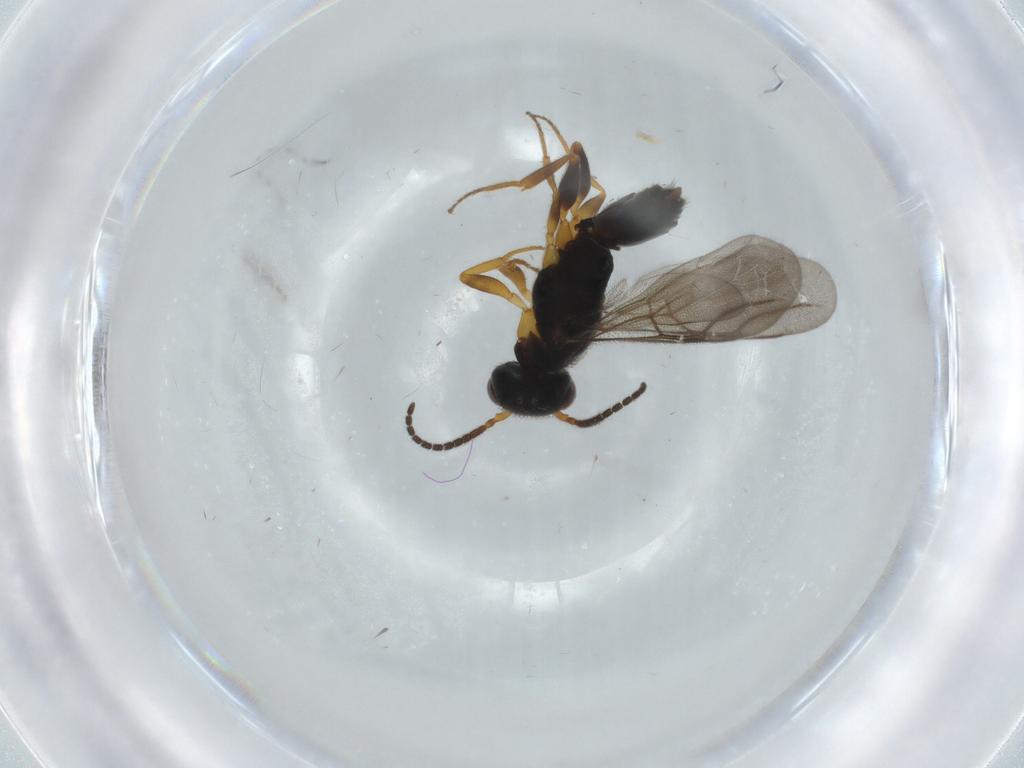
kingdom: Animalia
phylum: Arthropoda
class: Insecta
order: Hymenoptera
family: Bethylidae
